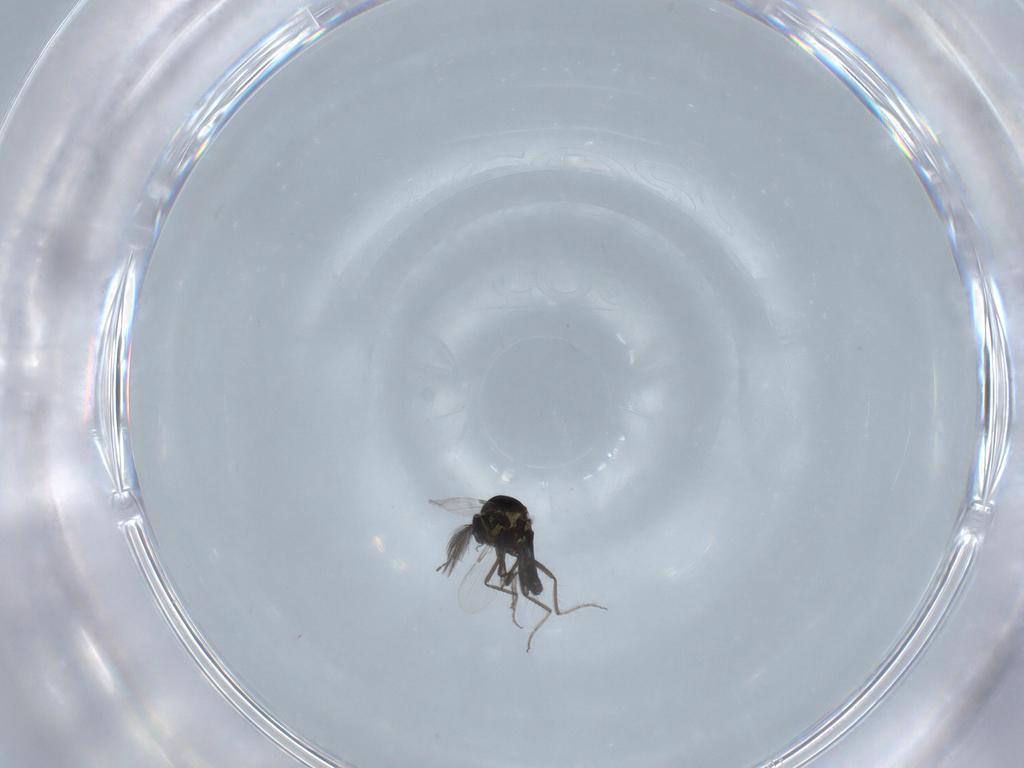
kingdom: Animalia
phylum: Arthropoda
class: Insecta
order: Diptera
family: Ceratopogonidae
